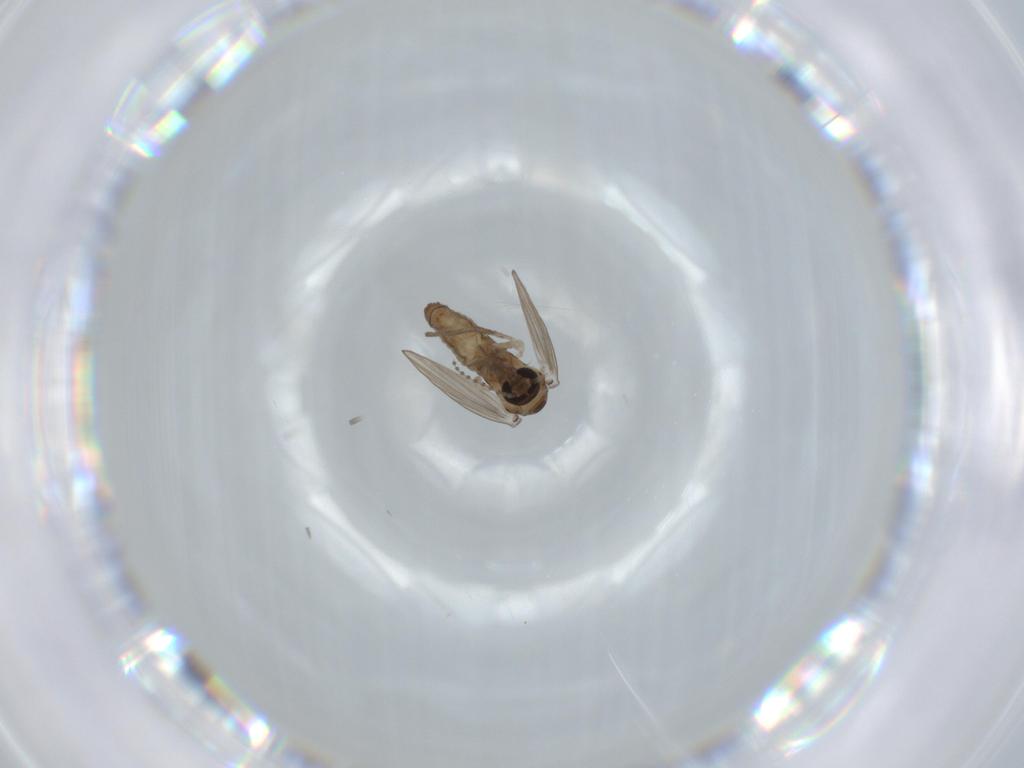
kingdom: Animalia
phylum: Arthropoda
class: Insecta
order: Diptera
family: Psychodidae
